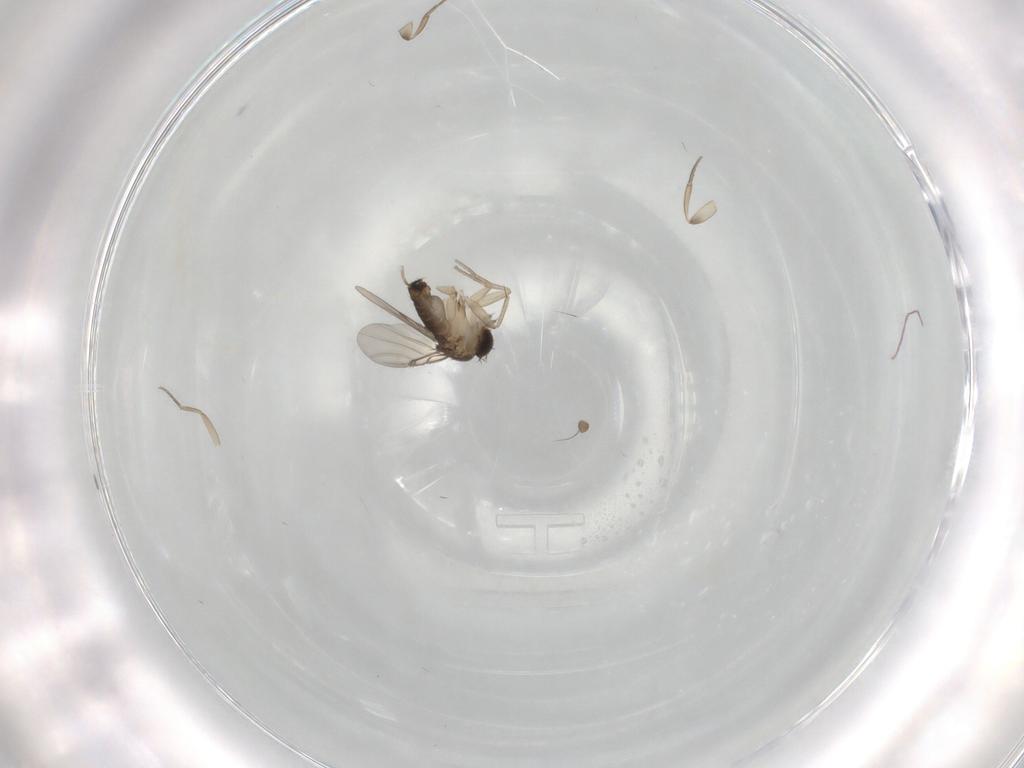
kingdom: Animalia
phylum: Arthropoda
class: Insecta
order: Diptera
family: Phoridae
